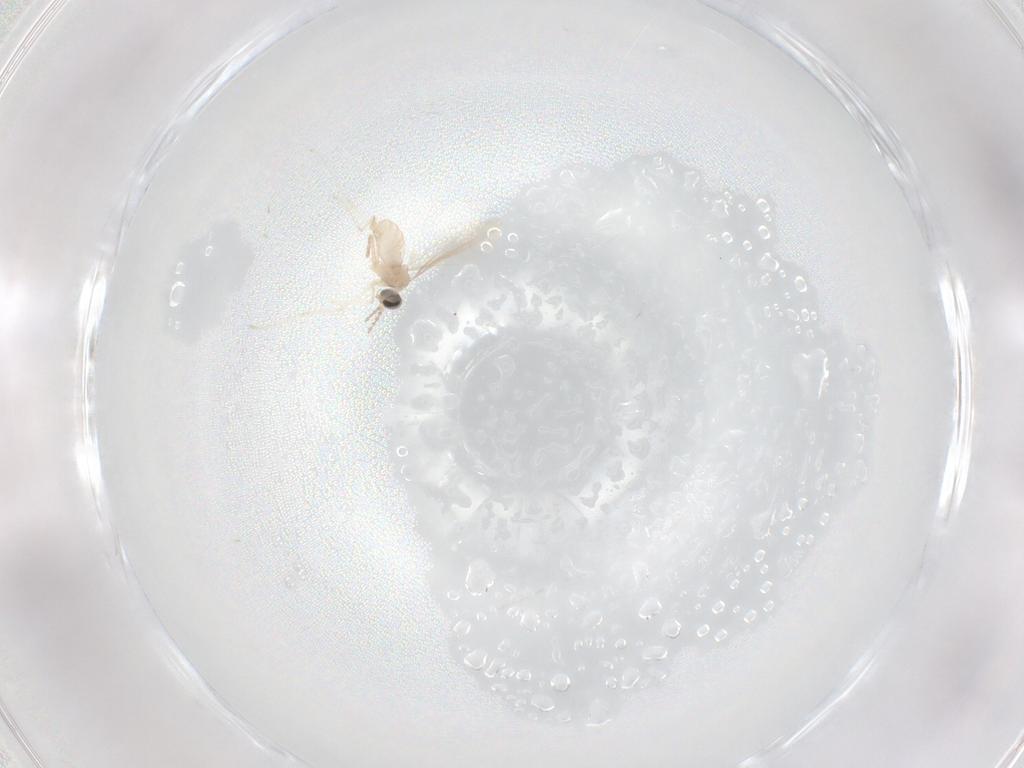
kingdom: Animalia
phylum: Arthropoda
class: Insecta
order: Diptera
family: Cecidomyiidae
